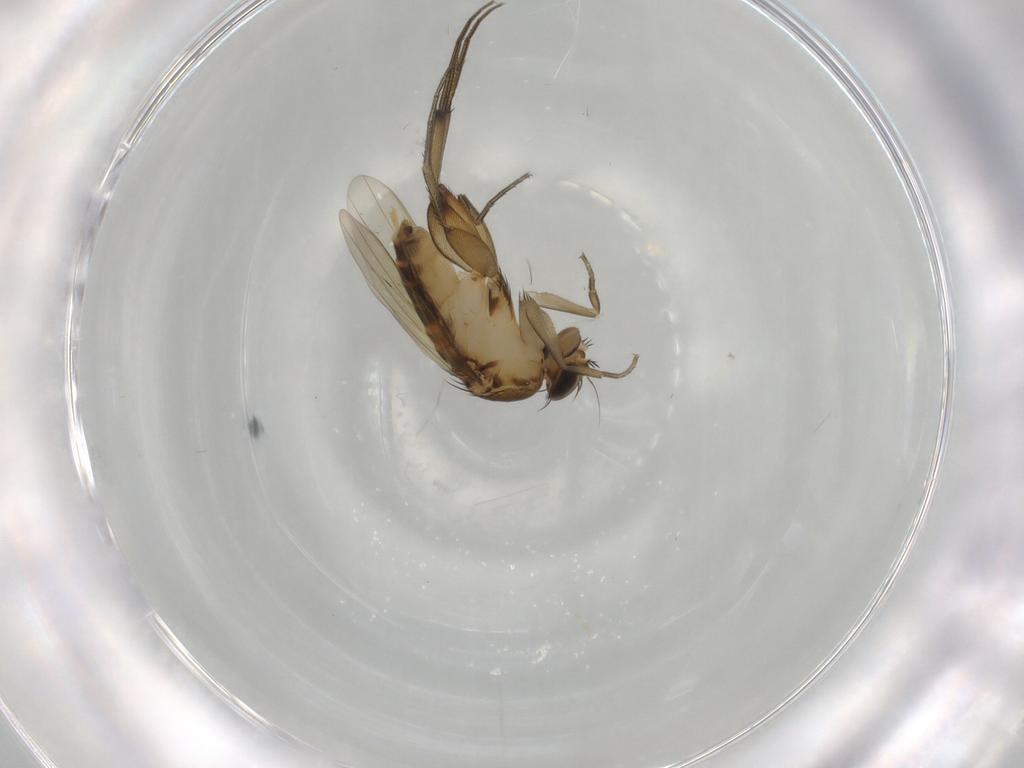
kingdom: Animalia
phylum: Arthropoda
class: Insecta
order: Diptera
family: Phoridae
